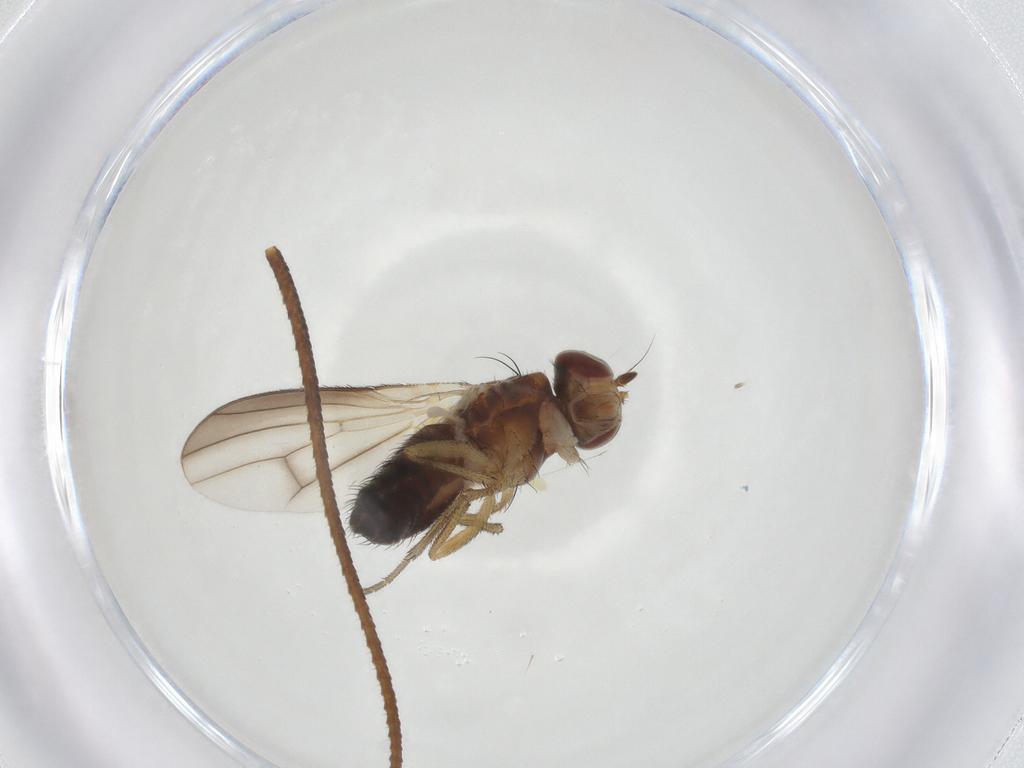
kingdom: Animalia
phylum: Arthropoda
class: Insecta
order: Diptera
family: Heleomyzidae
